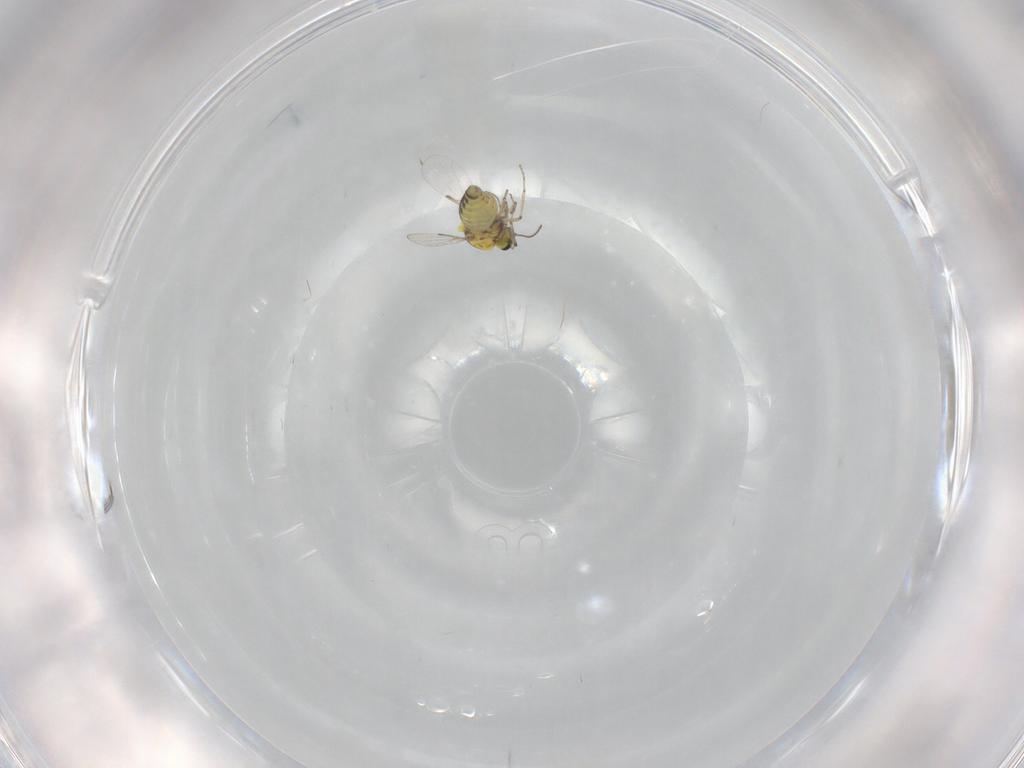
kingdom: Animalia
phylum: Arthropoda
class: Insecta
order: Diptera
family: Ceratopogonidae
